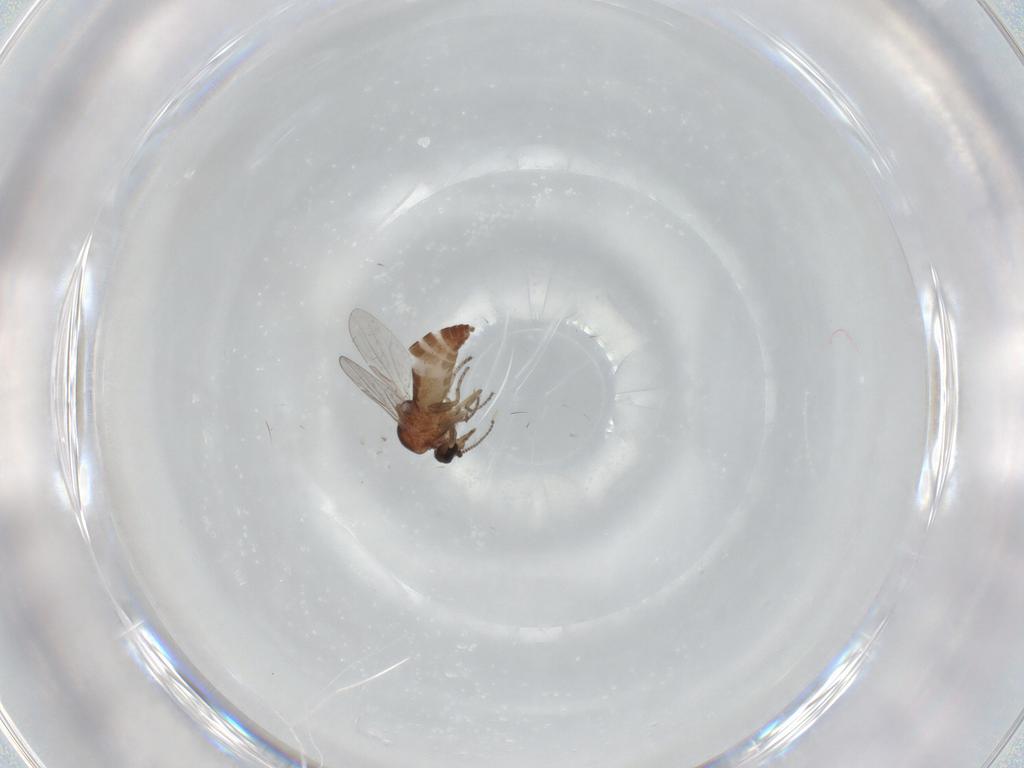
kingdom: Animalia
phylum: Arthropoda
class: Insecta
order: Diptera
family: Ceratopogonidae
